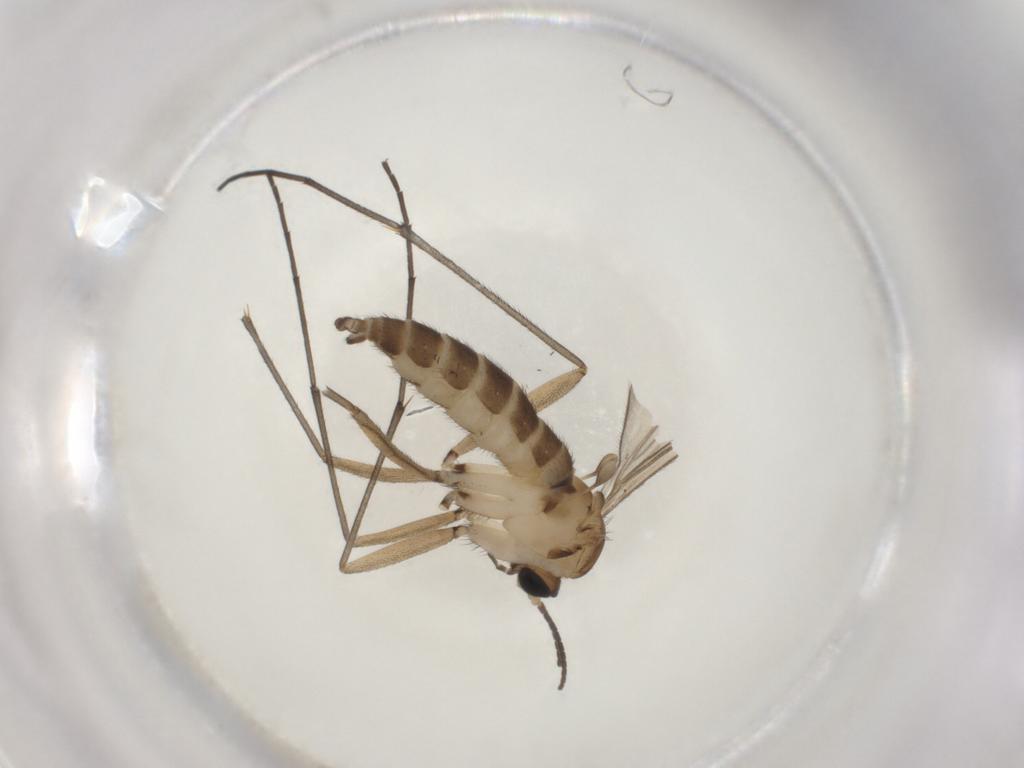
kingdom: Animalia
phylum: Arthropoda
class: Insecta
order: Diptera
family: Sciaridae
